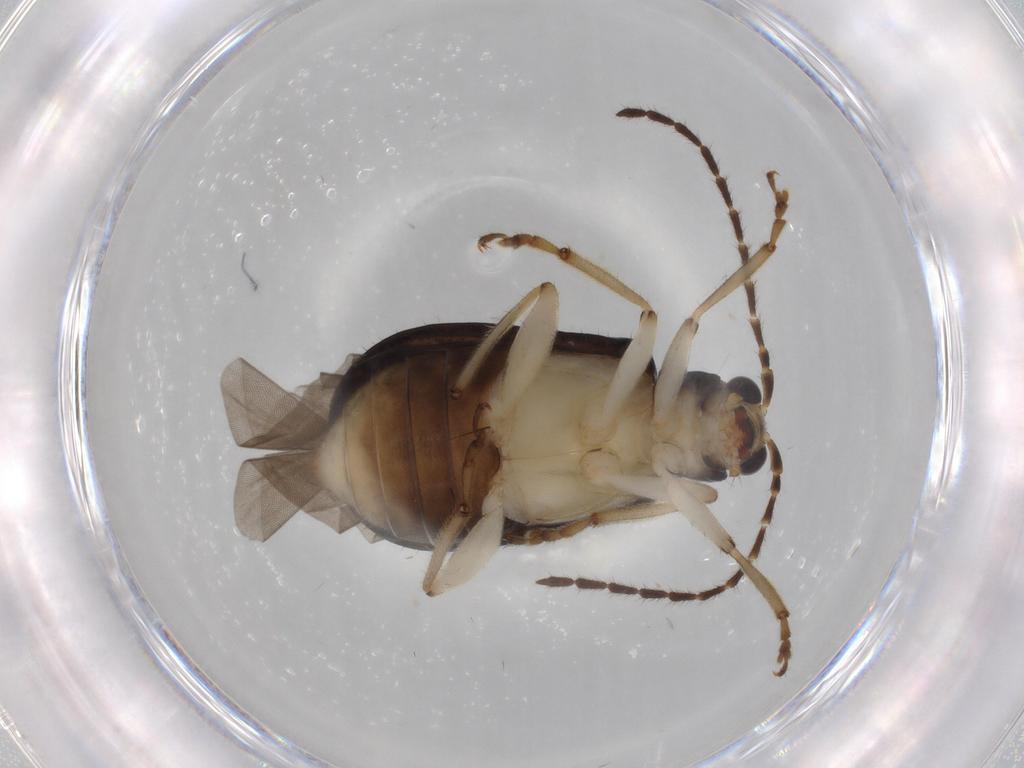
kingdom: Animalia
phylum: Arthropoda
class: Insecta
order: Coleoptera
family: Chrysomelidae
